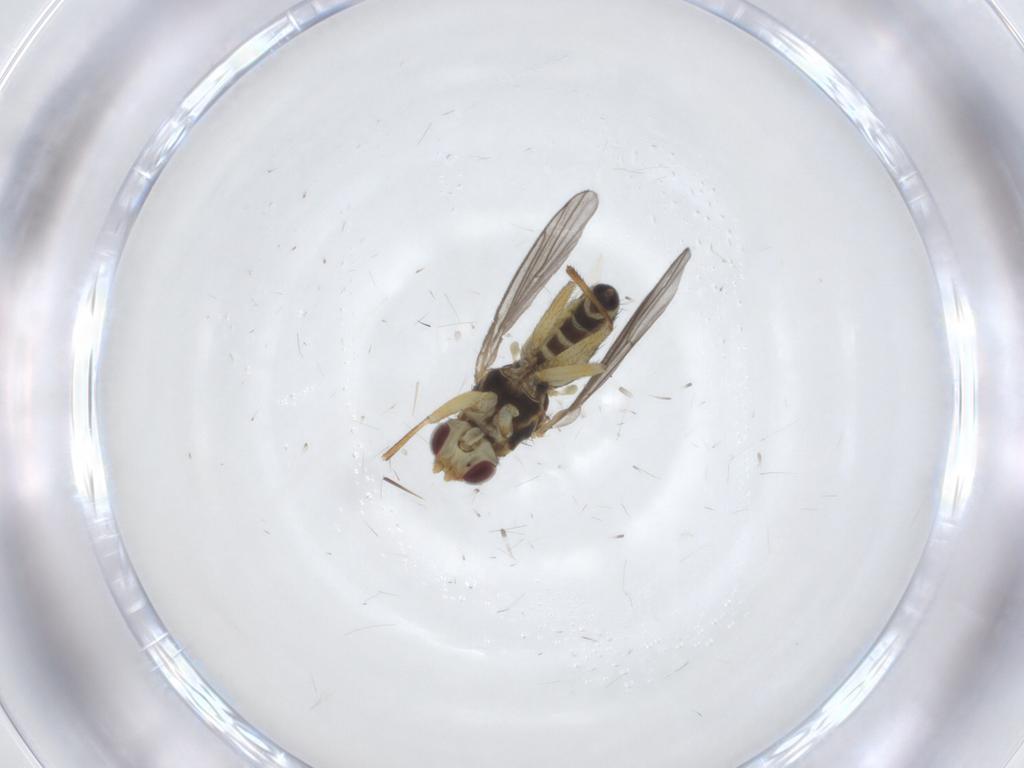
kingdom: Animalia
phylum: Arthropoda
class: Insecta
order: Diptera
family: Agromyzidae
